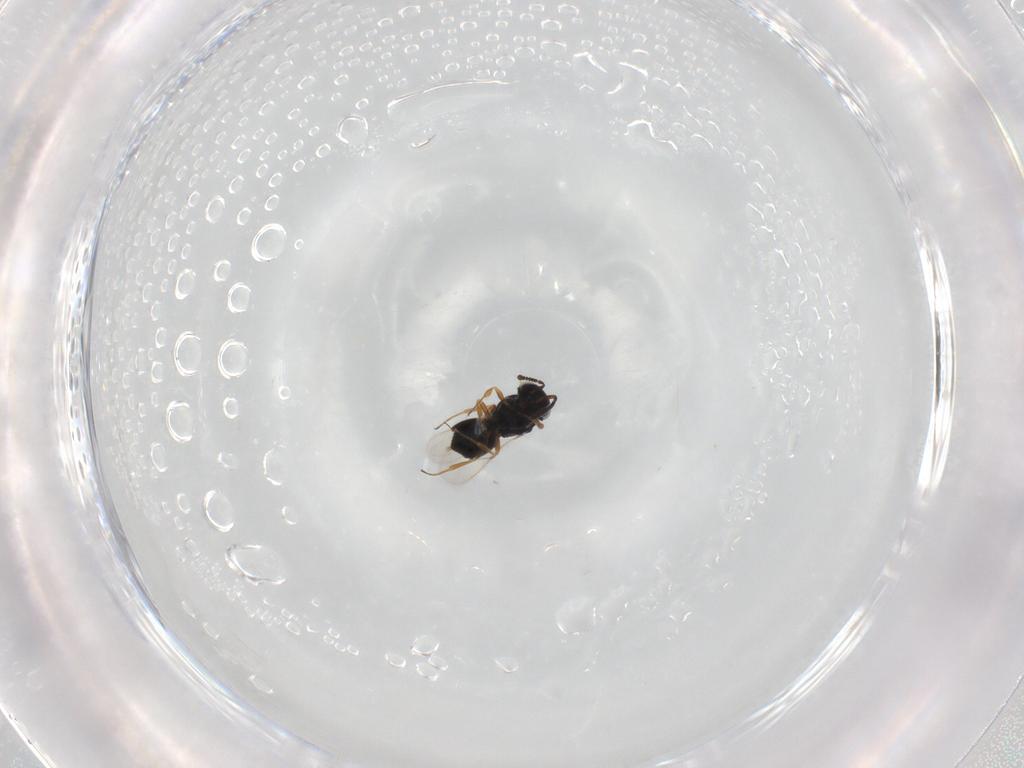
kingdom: Animalia
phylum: Arthropoda
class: Insecta
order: Hymenoptera
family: Scelionidae
